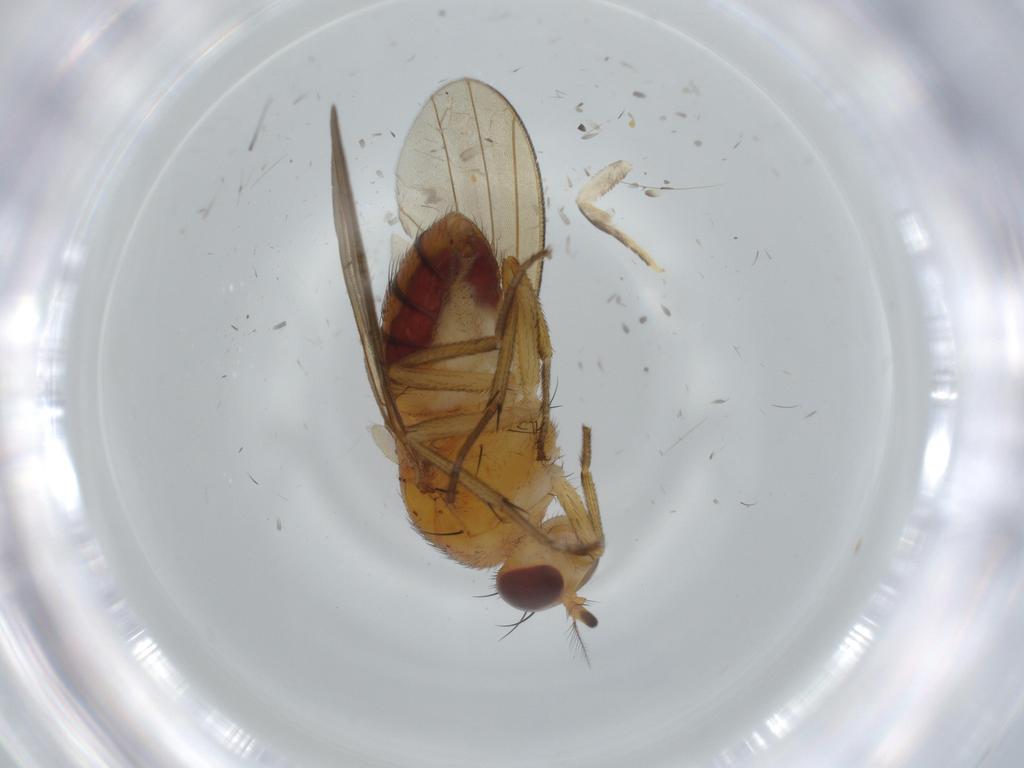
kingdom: Animalia
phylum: Arthropoda
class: Insecta
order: Diptera
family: Lauxaniidae
